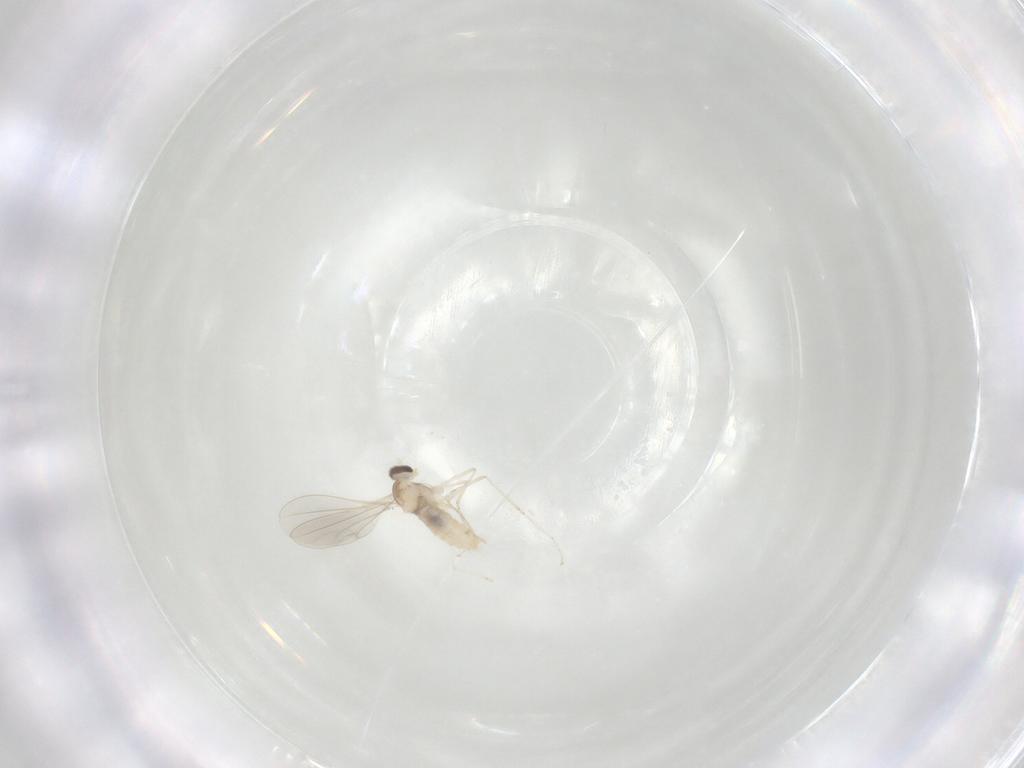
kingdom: Animalia
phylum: Arthropoda
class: Insecta
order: Diptera
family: Cecidomyiidae
